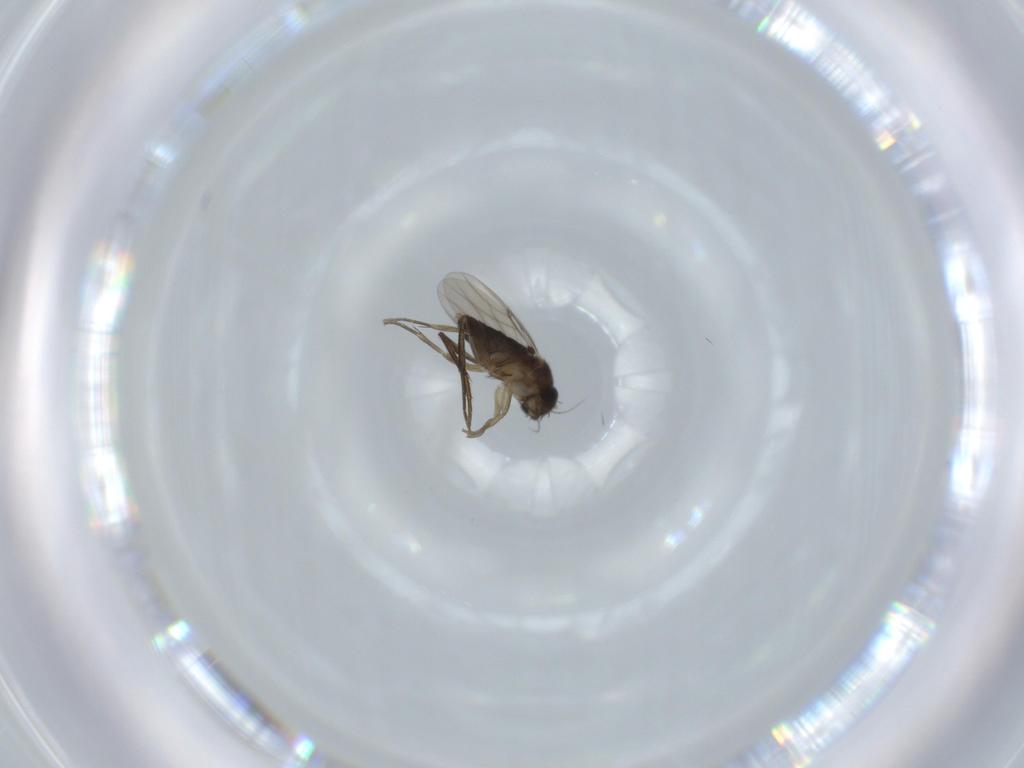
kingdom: Animalia
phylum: Arthropoda
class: Insecta
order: Diptera
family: Phoridae
